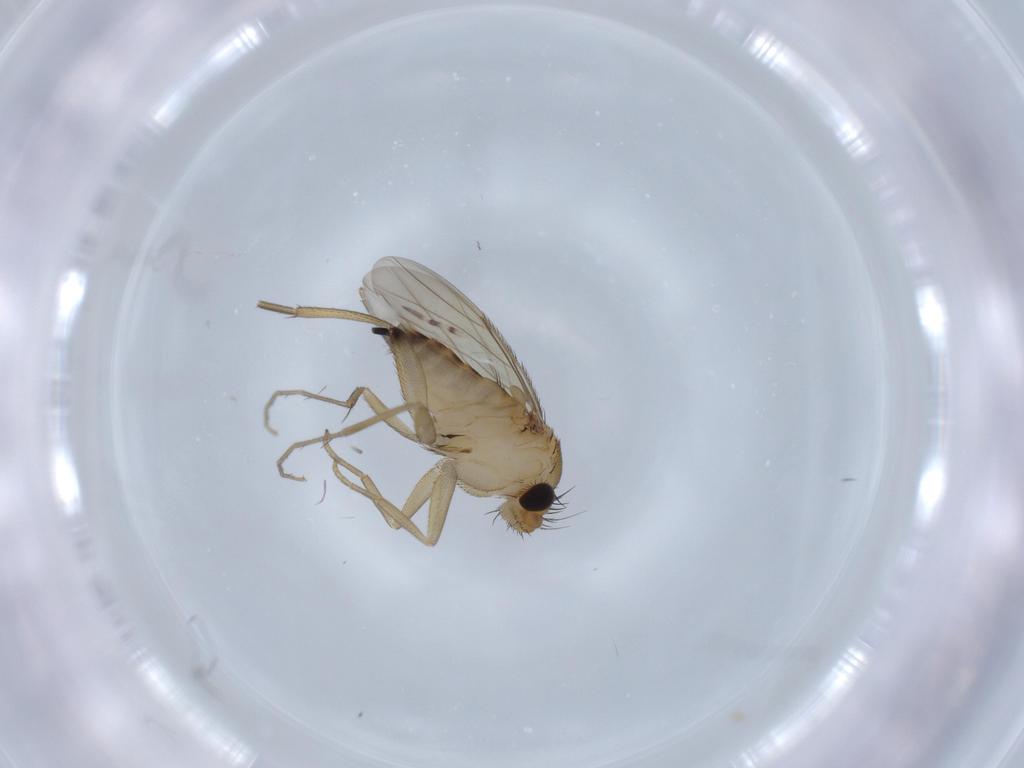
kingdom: Animalia
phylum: Arthropoda
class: Insecta
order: Diptera
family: Phoridae
